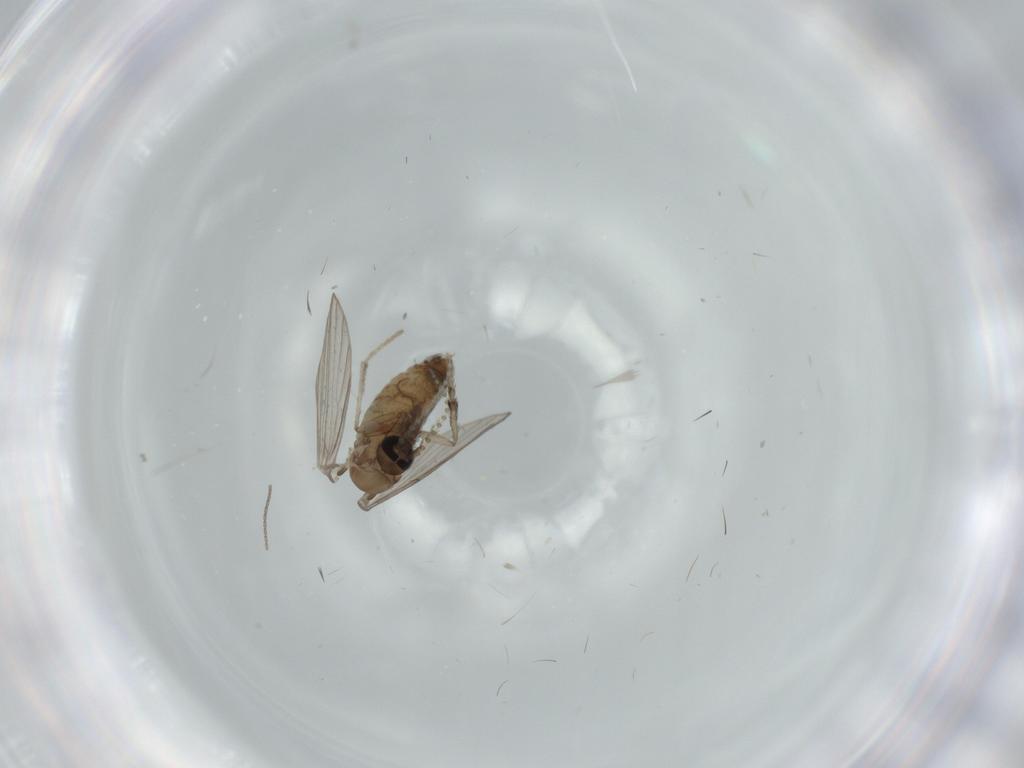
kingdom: Animalia
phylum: Arthropoda
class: Insecta
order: Diptera
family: Psychodidae
